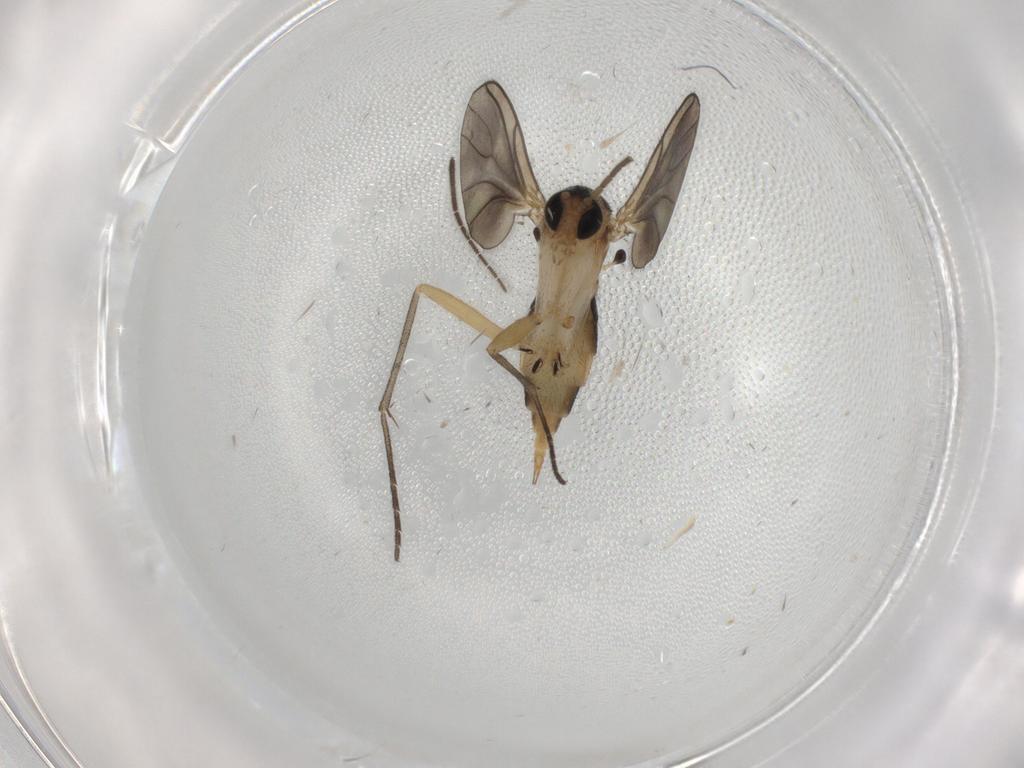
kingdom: Animalia
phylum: Arthropoda
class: Insecta
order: Diptera
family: Sciaridae
